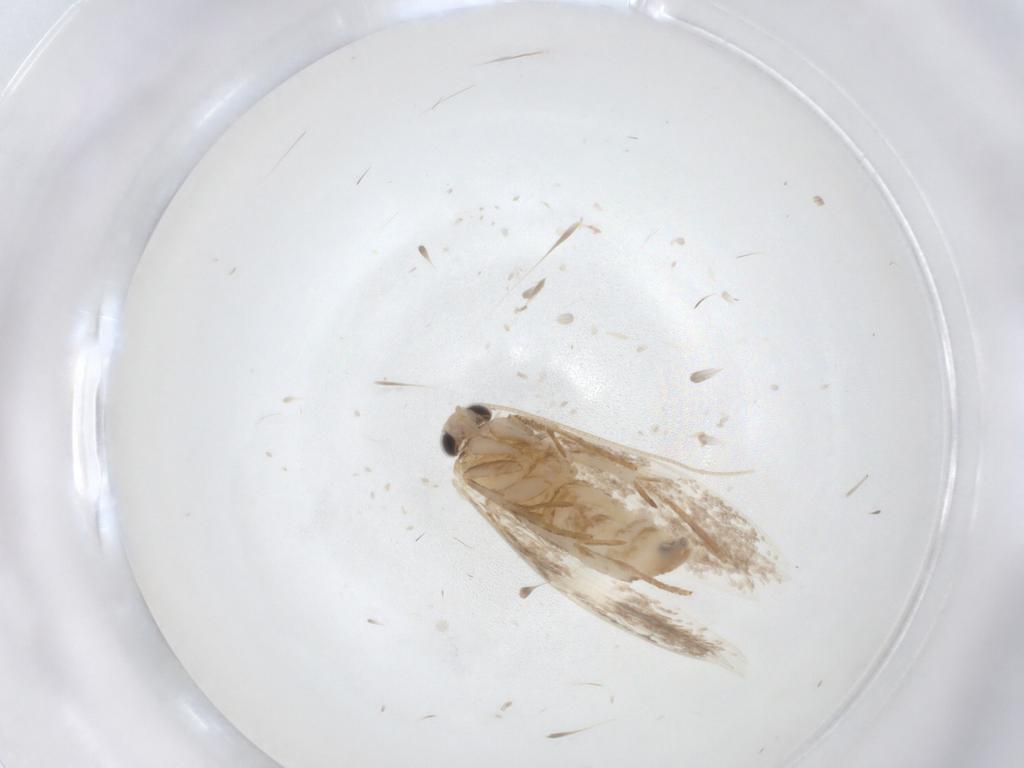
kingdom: Animalia
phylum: Arthropoda
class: Insecta
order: Lepidoptera
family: Tineidae
